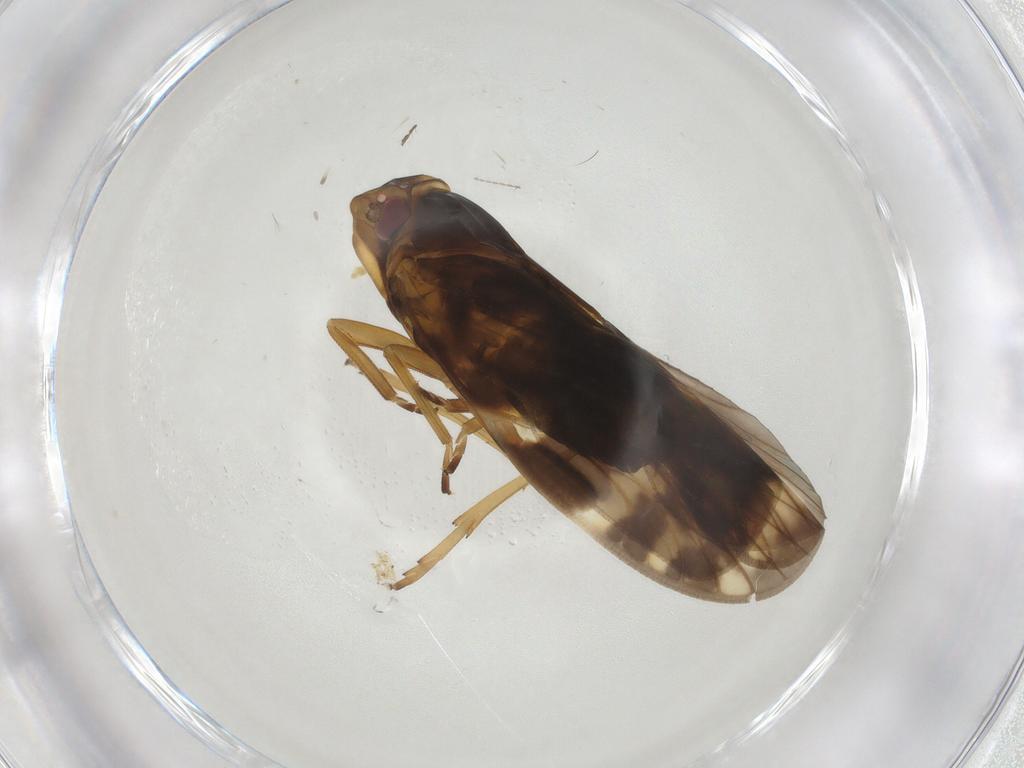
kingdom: Animalia
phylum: Arthropoda
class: Insecta
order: Hemiptera
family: Cixiidae
